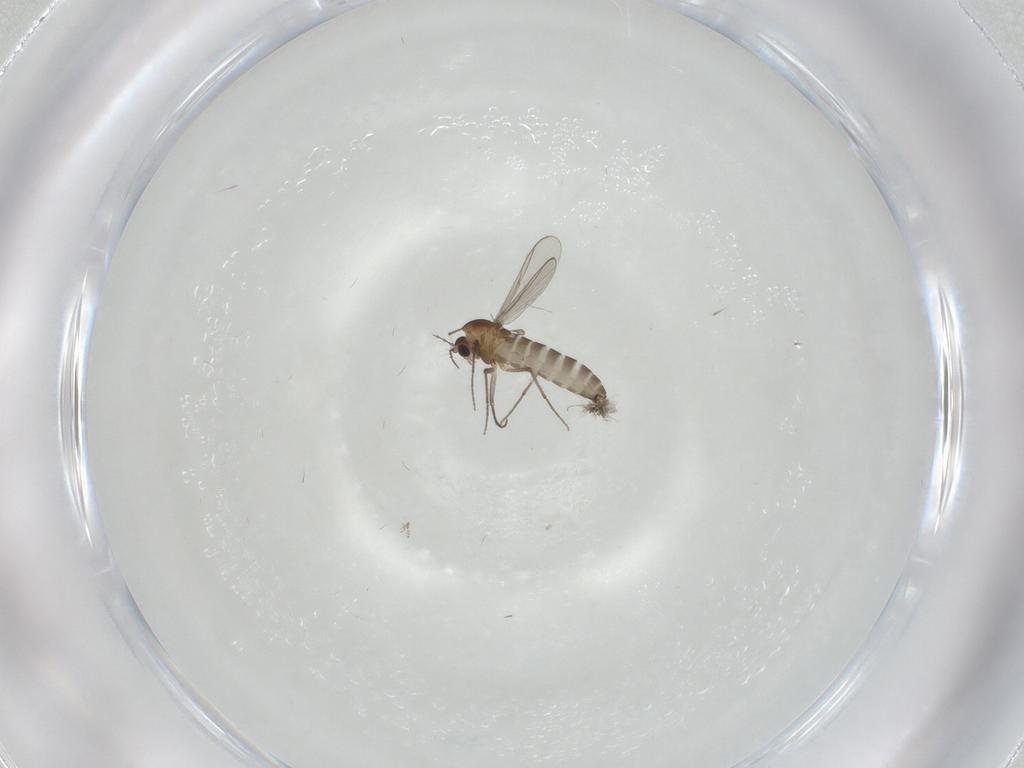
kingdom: Animalia
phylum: Arthropoda
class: Insecta
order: Diptera
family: Chironomidae
